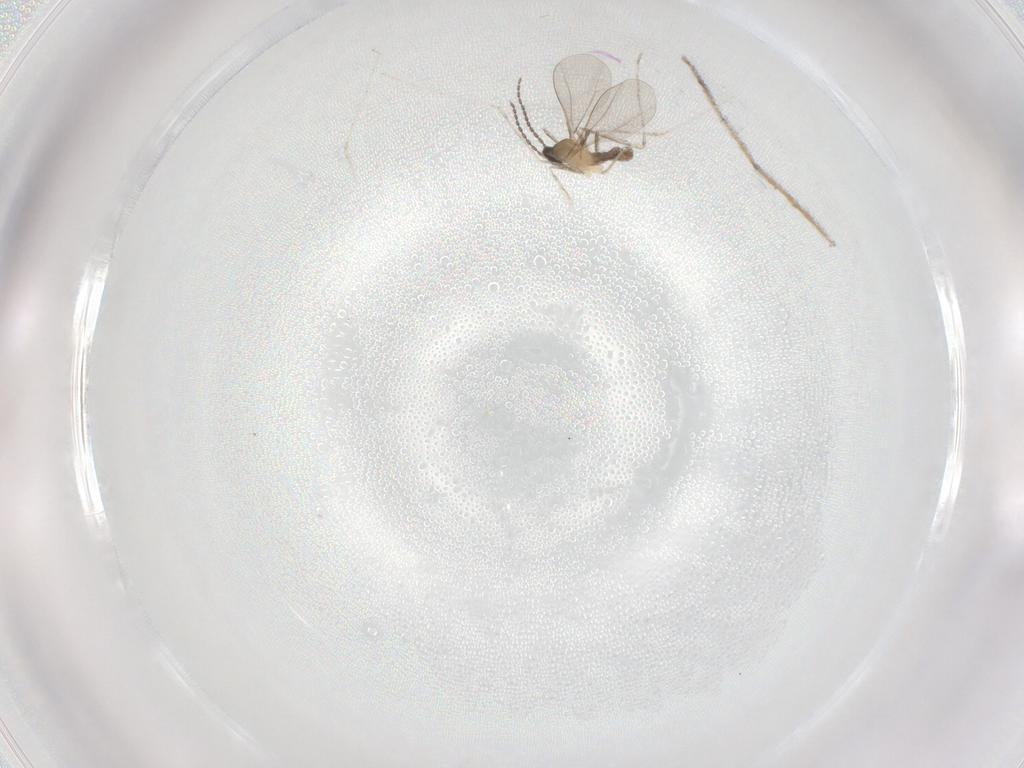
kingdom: Animalia
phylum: Arthropoda
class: Insecta
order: Diptera
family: Cecidomyiidae
